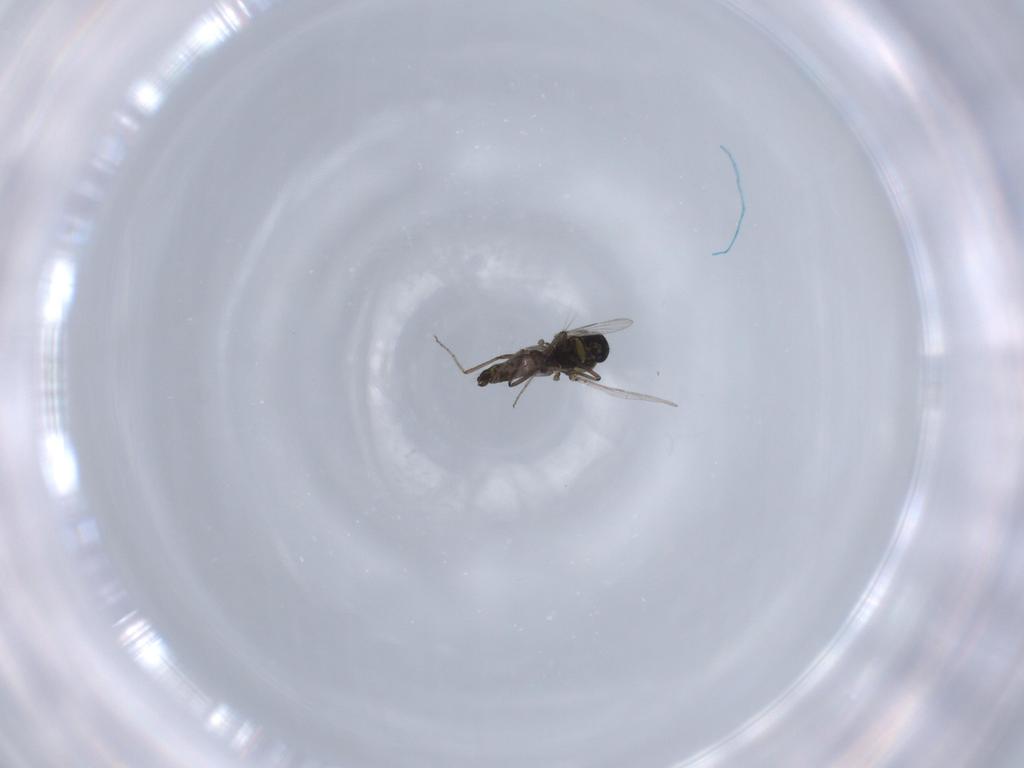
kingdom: Animalia
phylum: Arthropoda
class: Insecta
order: Diptera
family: Ceratopogonidae
